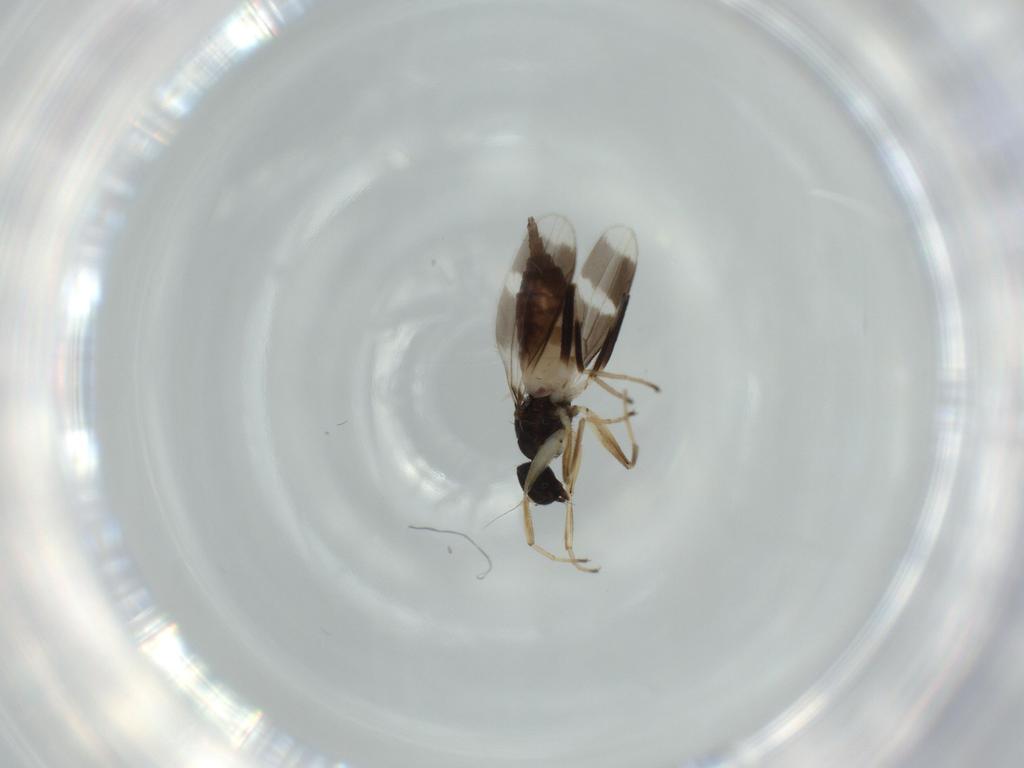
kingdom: Animalia
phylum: Arthropoda
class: Insecta
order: Diptera
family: Hybotidae
